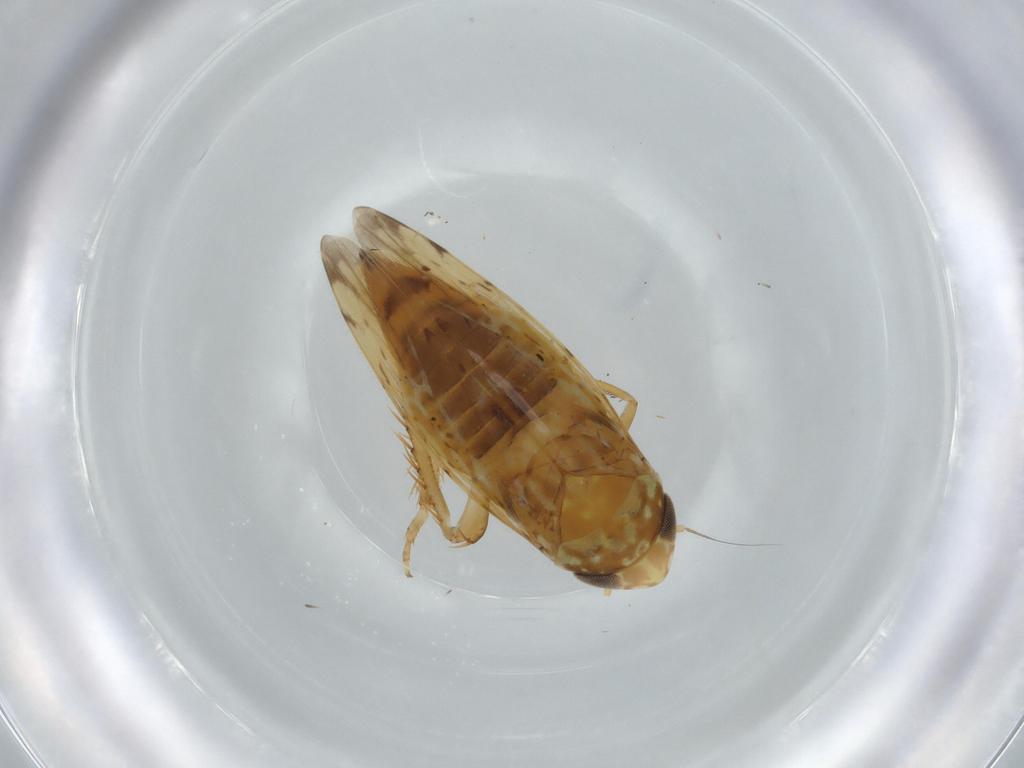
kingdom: Animalia
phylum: Arthropoda
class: Insecta
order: Hemiptera
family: Cicadellidae
